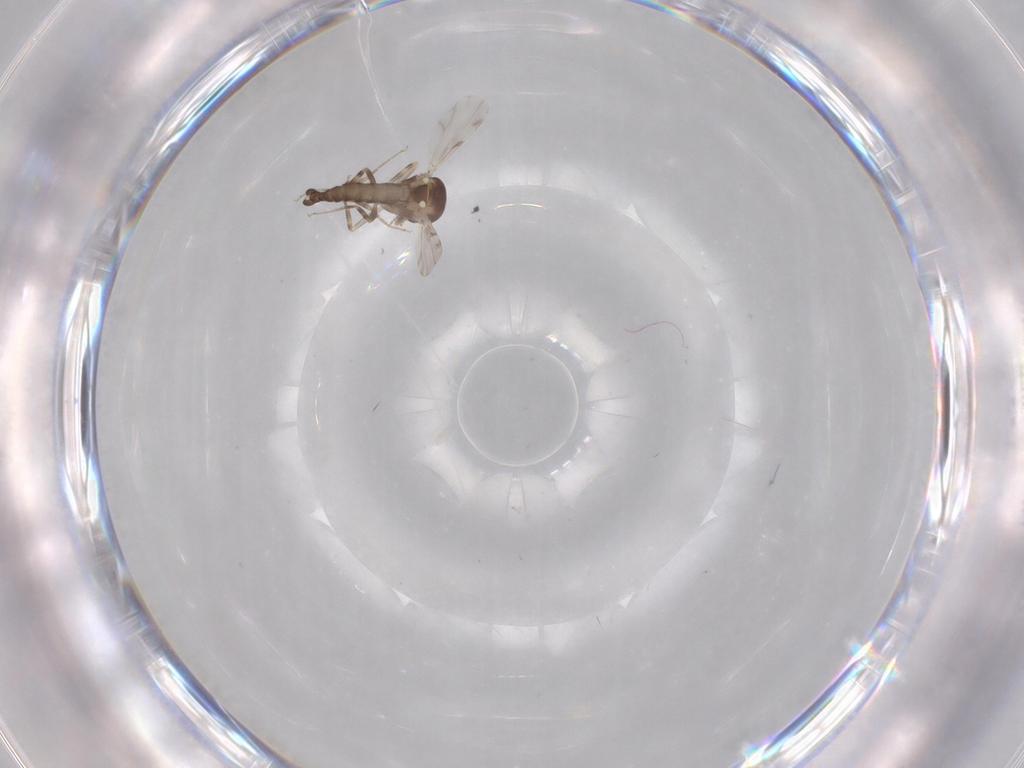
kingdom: Animalia
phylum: Arthropoda
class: Insecta
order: Diptera
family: Ceratopogonidae
